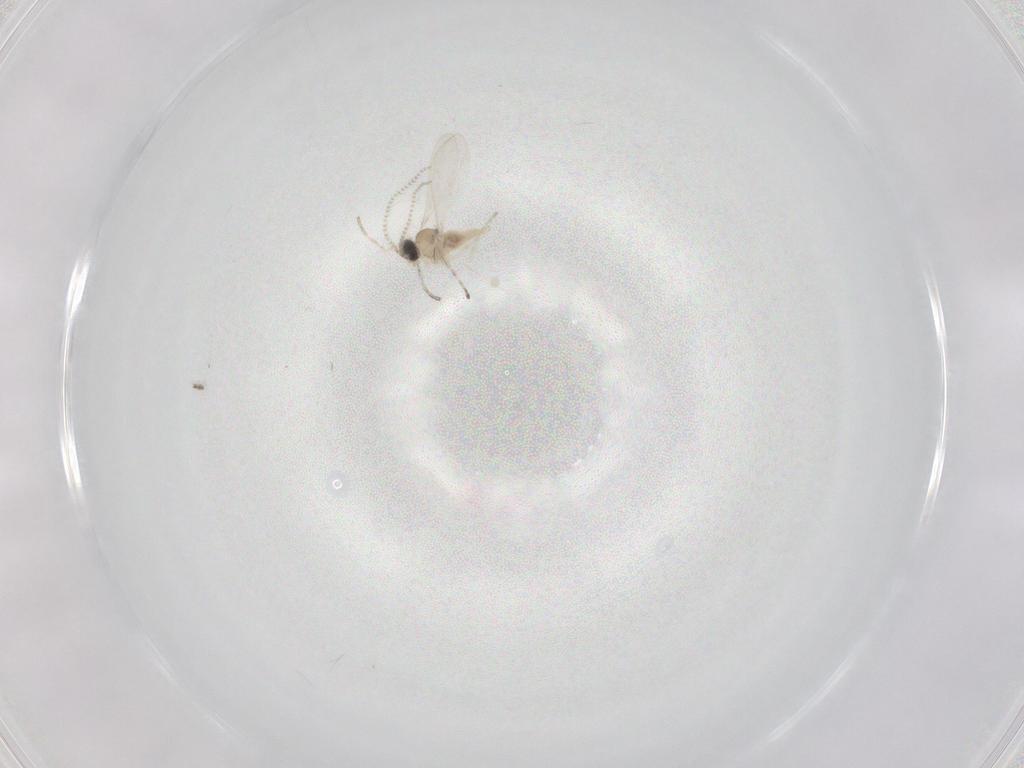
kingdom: Animalia
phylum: Arthropoda
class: Insecta
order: Diptera
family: Cecidomyiidae
